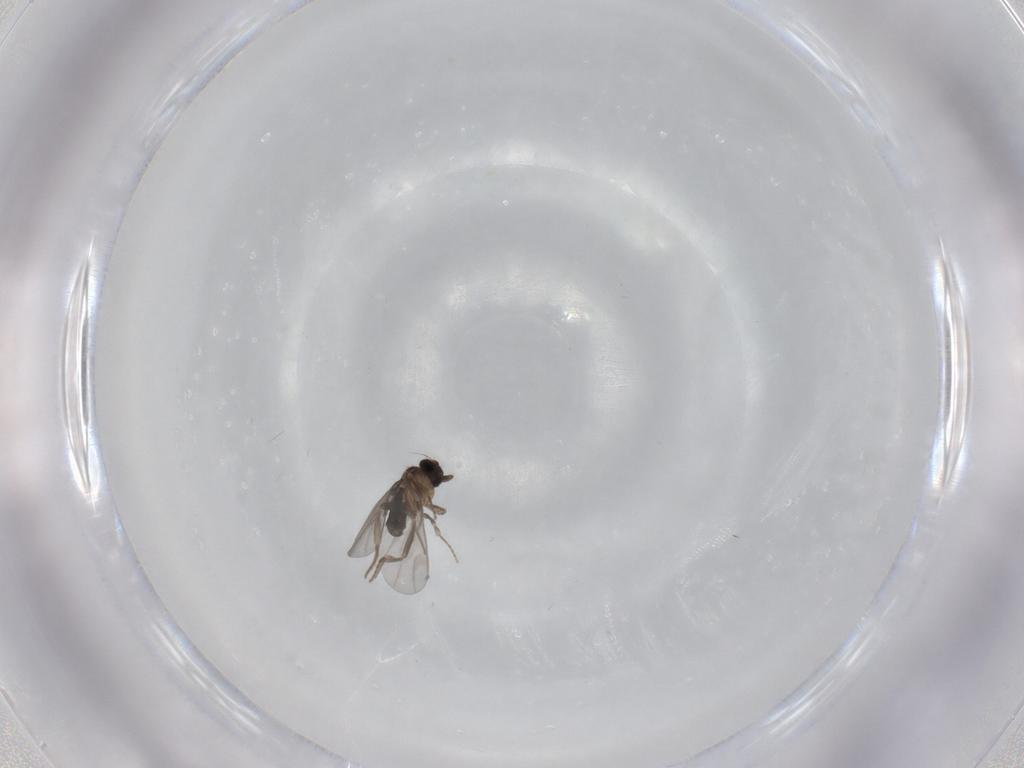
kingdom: Animalia
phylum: Arthropoda
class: Insecta
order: Diptera
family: Cecidomyiidae
